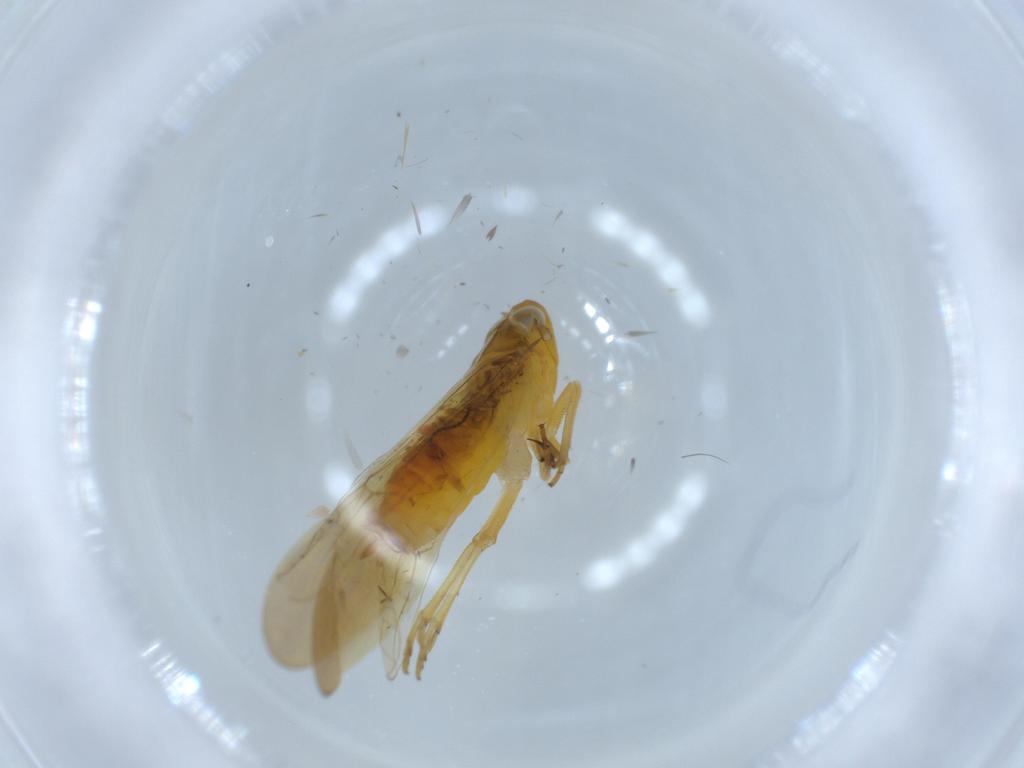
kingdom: Animalia
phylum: Arthropoda
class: Insecta
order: Hemiptera
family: Delphacidae
